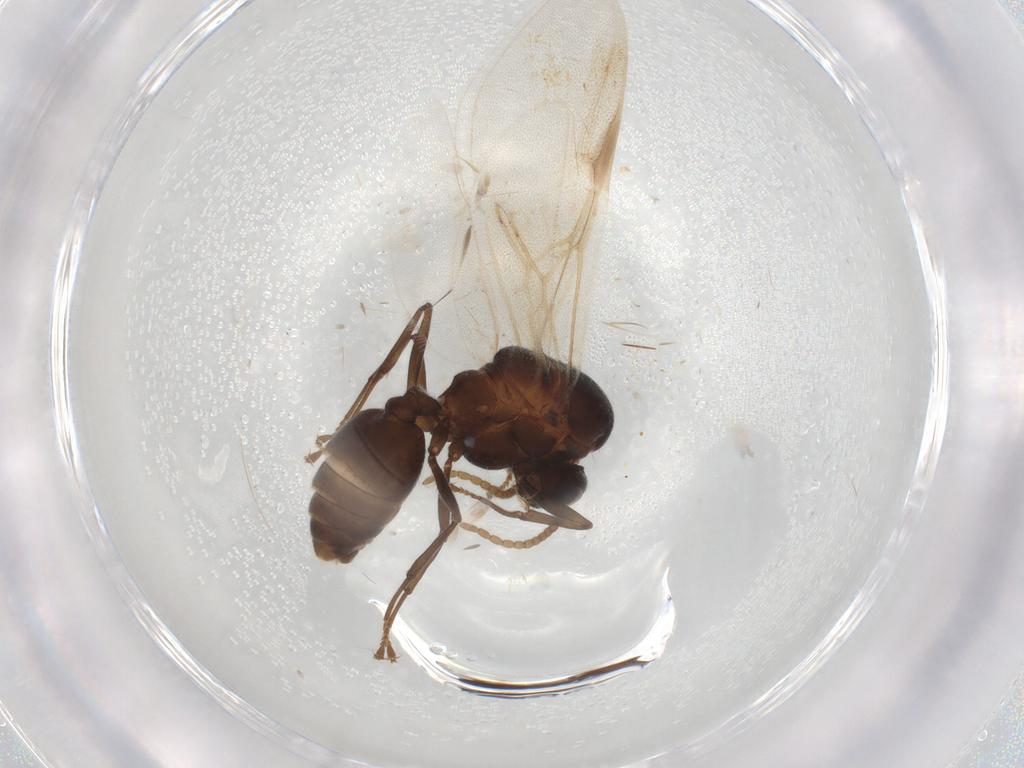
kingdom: Animalia
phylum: Arthropoda
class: Insecta
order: Hymenoptera
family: Formicidae
